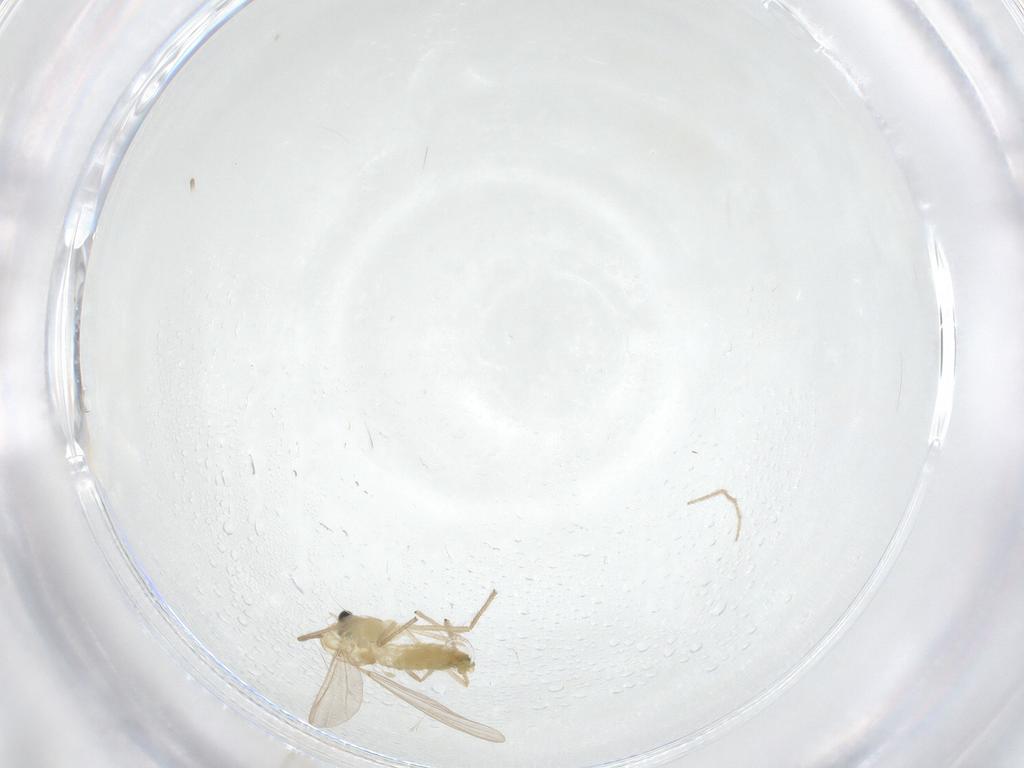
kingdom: Animalia
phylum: Arthropoda
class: Insecta
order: Diptera
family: Chironomidae
